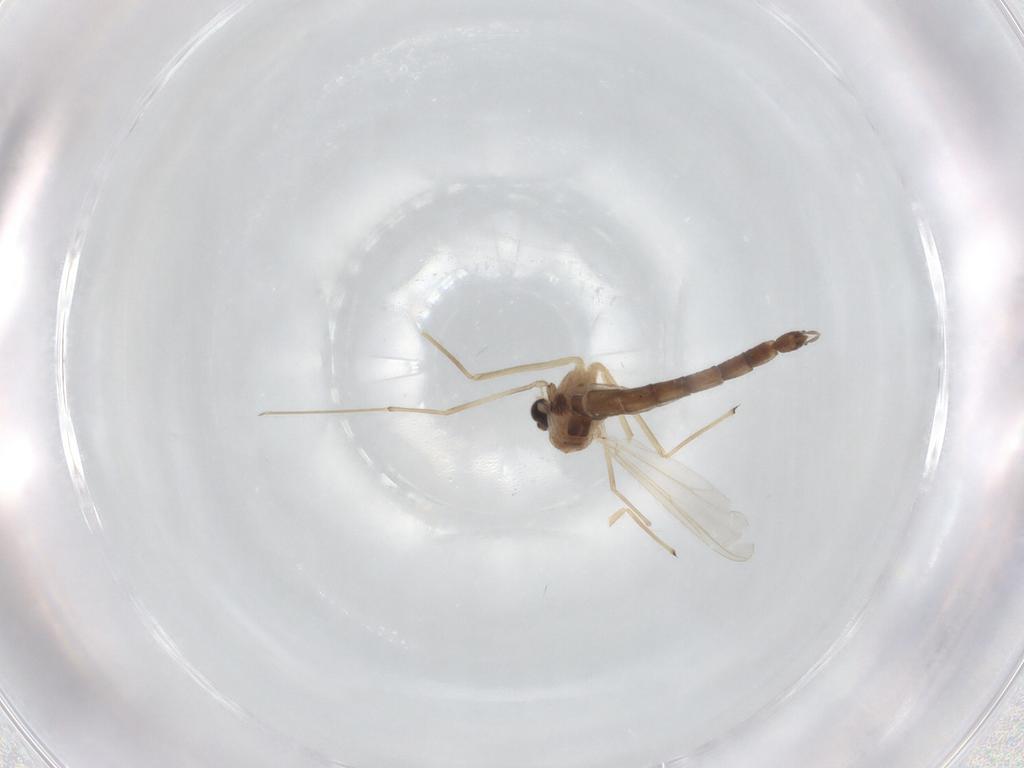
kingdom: Animalia
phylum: Arthropoda
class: Insecta
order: Diptera
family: Chironomidae
